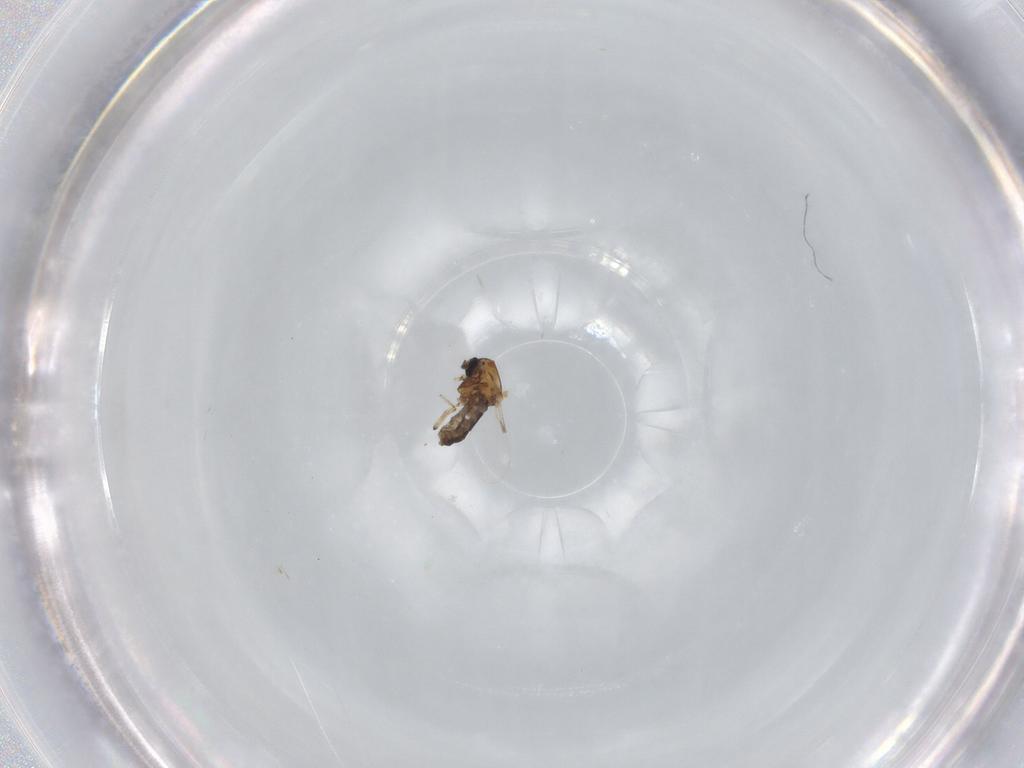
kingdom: Animalia
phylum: Arthropoda
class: Insecta
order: Diptera
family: Ceratopogonidae
